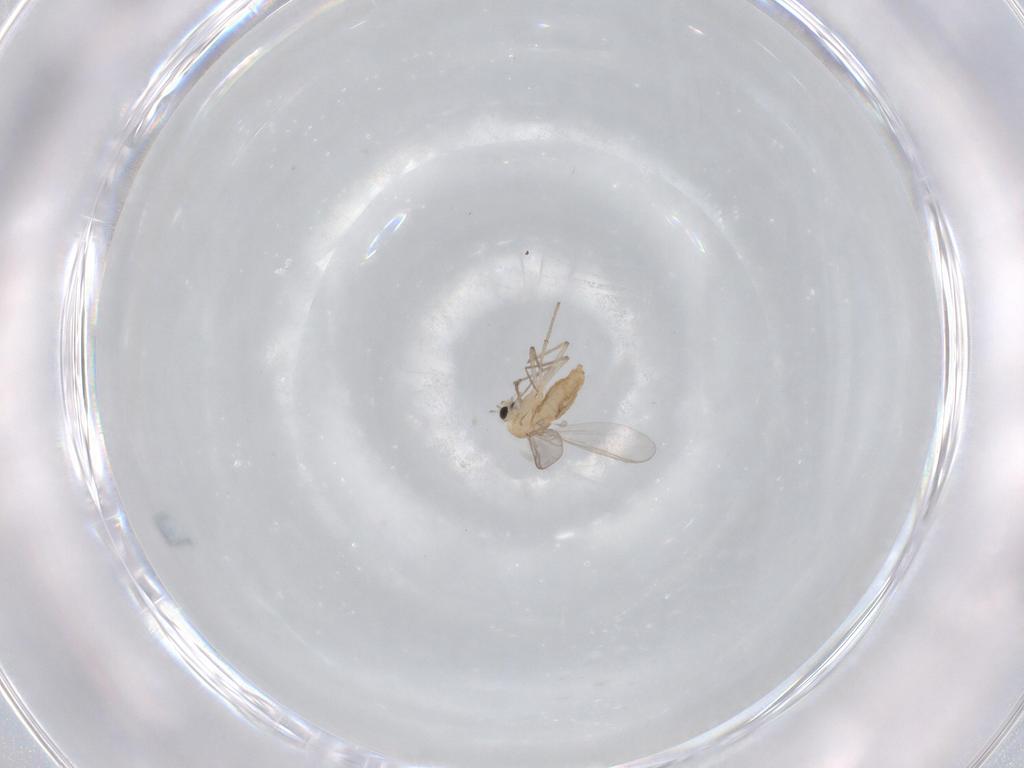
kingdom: Animalia
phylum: Arthropoda
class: Insecta
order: Diptera
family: Chironomidae
